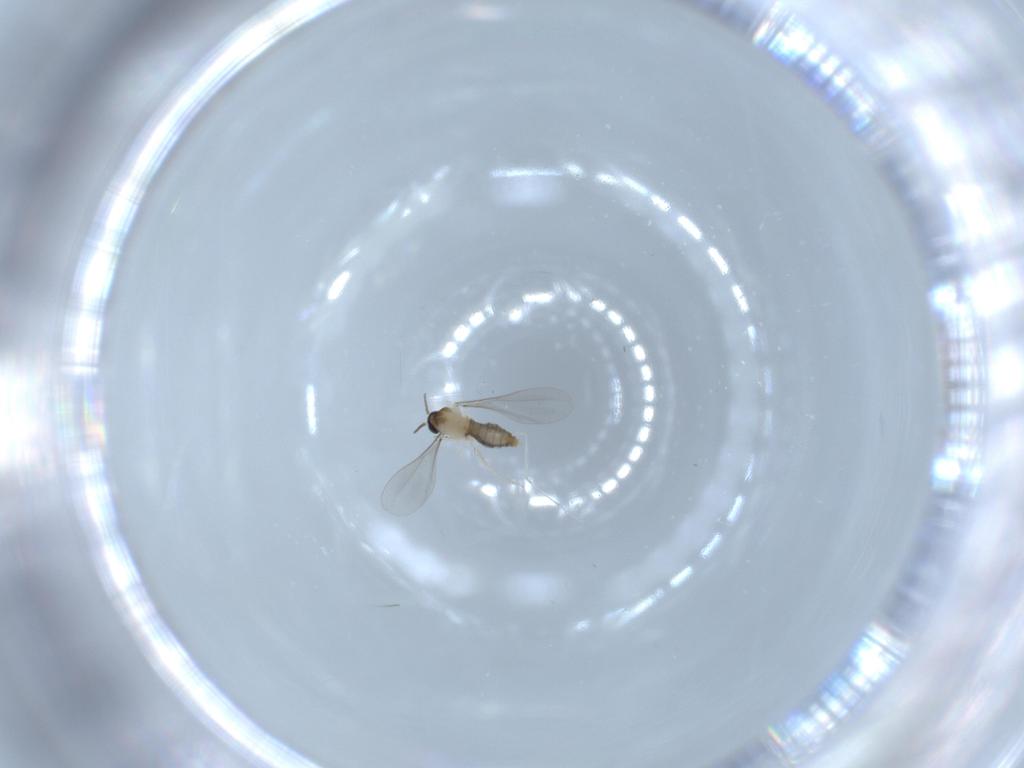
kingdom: Animalia
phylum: Arthropoda
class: Insecta
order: Diptera
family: Cecidomyiidae
